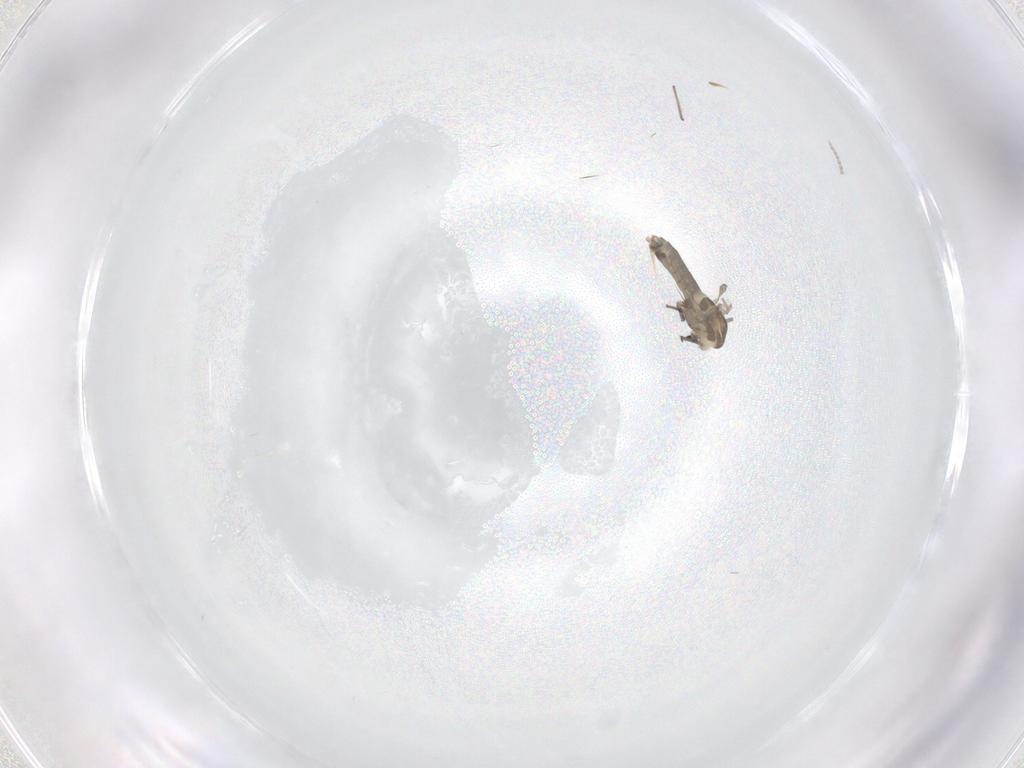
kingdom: Animalia
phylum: Arthropoda
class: Insecta
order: Diptera
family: Chironomidae
